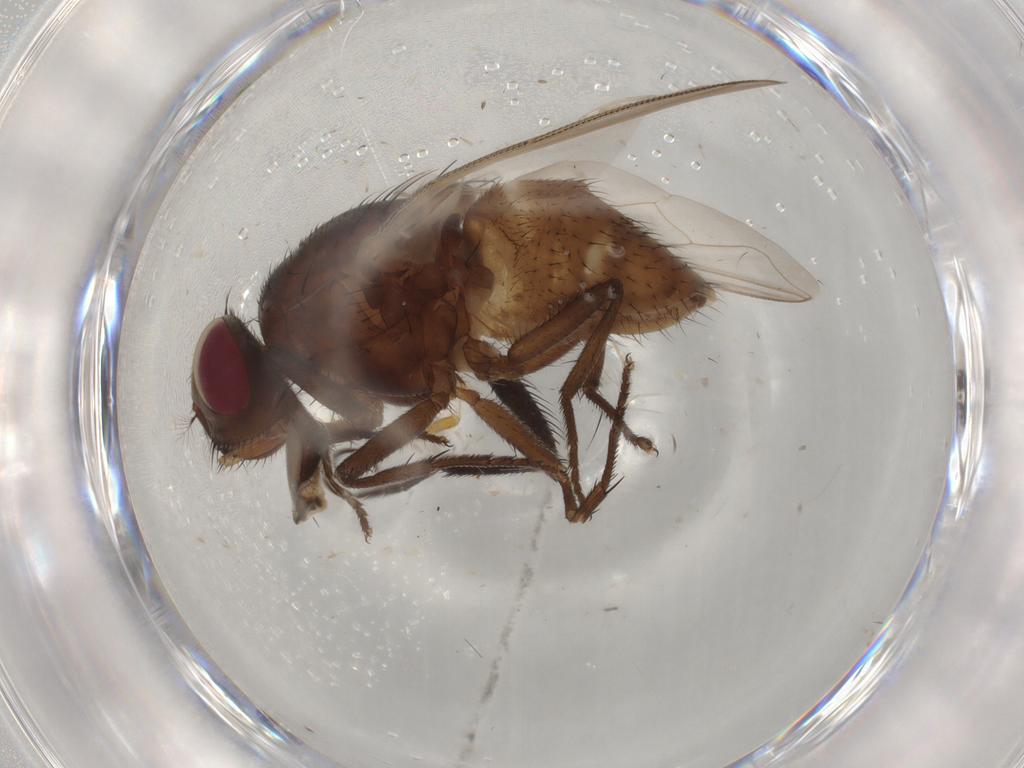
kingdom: Animalia
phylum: Arthropoda
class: Insecta
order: Diptera
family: Muscidae
